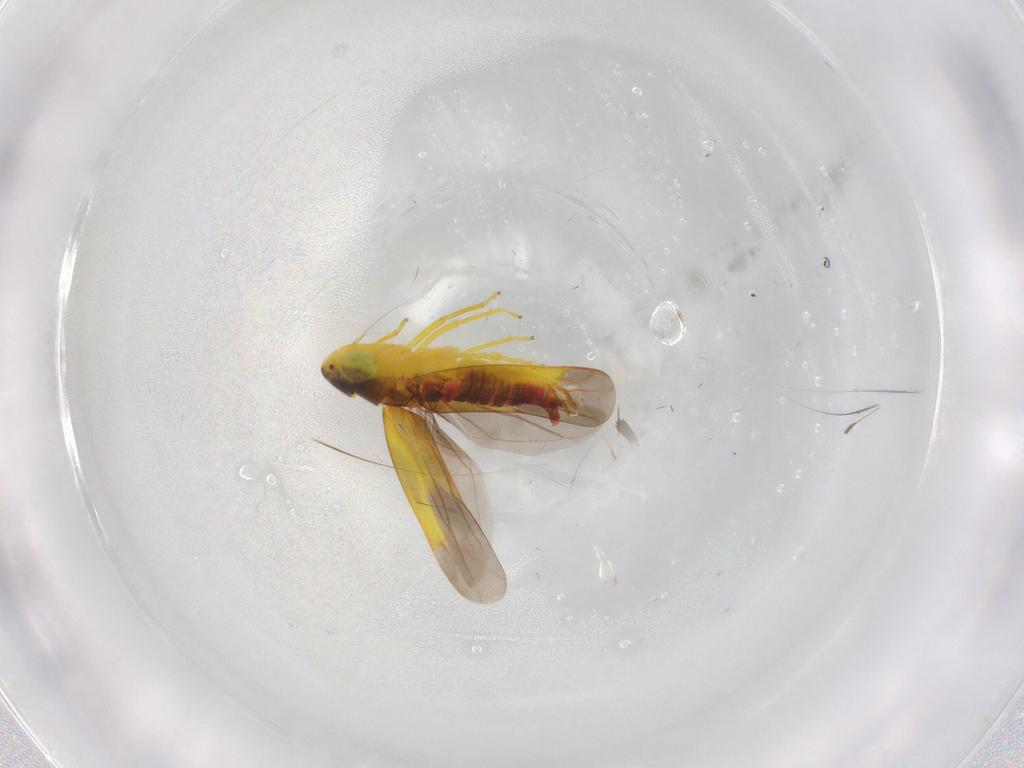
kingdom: Animalia
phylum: Arthropoda
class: Insecta
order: Hemiptera
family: Cicadellidae
